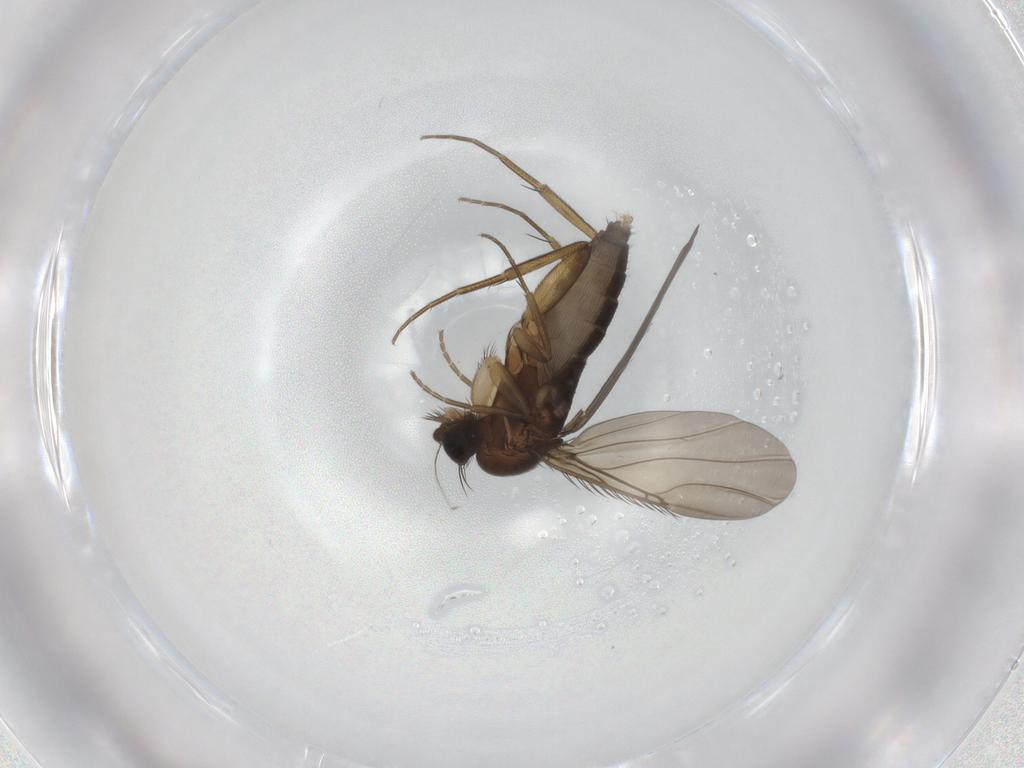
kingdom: Animalia
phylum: Arthropoda
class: Insecta
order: Diptera
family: Phoridae
